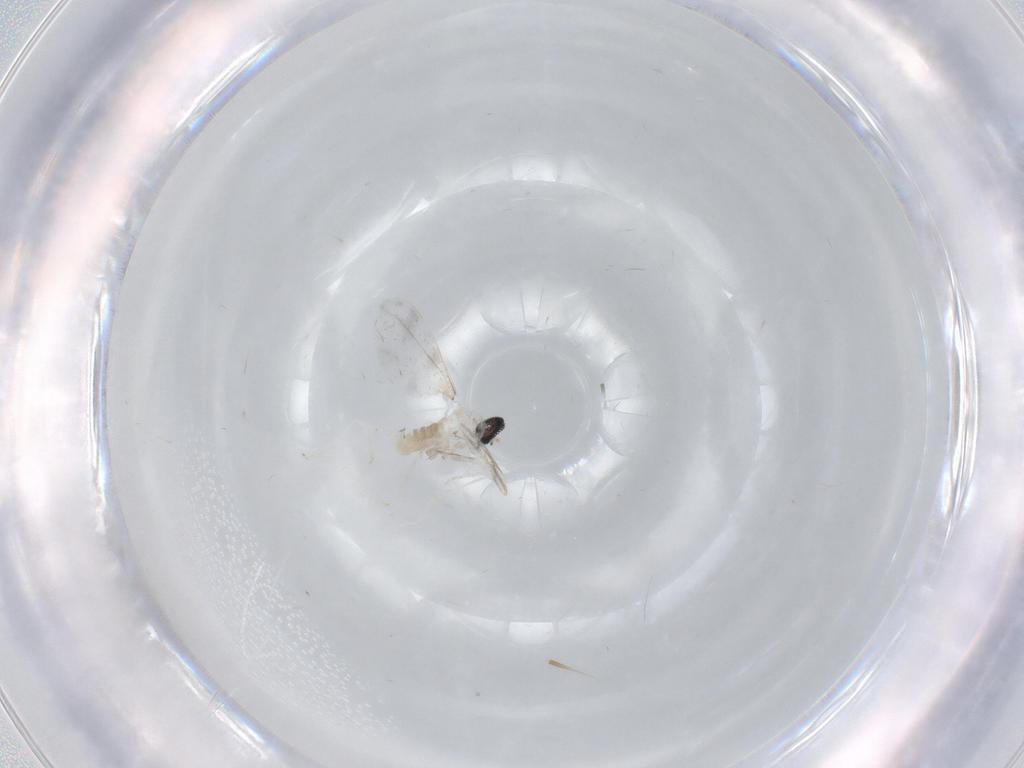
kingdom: Animalia
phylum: Arthropoda
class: Insecta
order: Diptera
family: Cecidomyiidae
